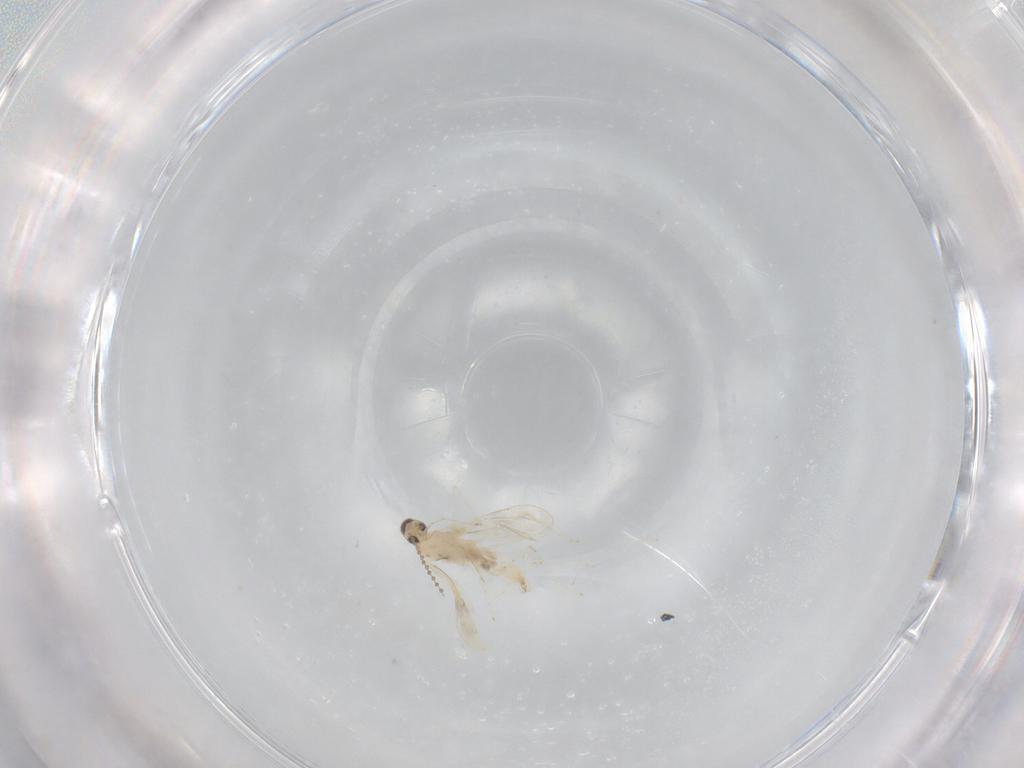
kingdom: Animalia
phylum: Arthropoda
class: Insecta
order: Diptera
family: Cecidomyiidae
